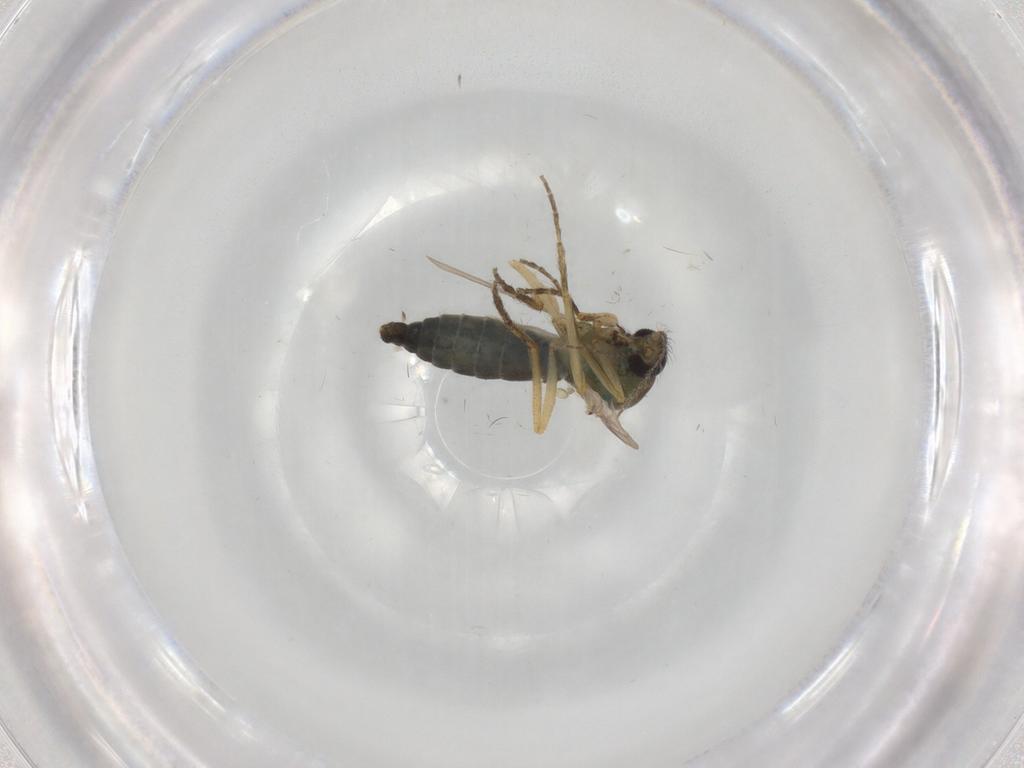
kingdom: Animalia
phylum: Arthropoda
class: Insecta
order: Diptera
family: Ceratopogonidae
